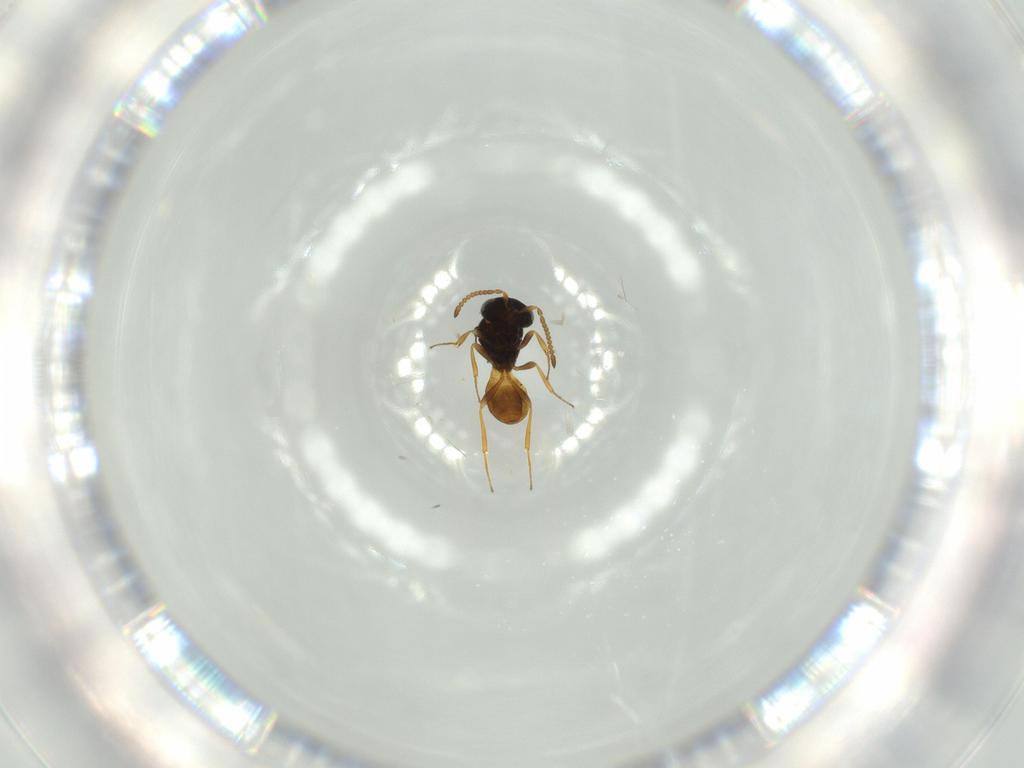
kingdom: Animalia
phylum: Arthropoda
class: Insecta
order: Hymenoptera
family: Scelionidae
